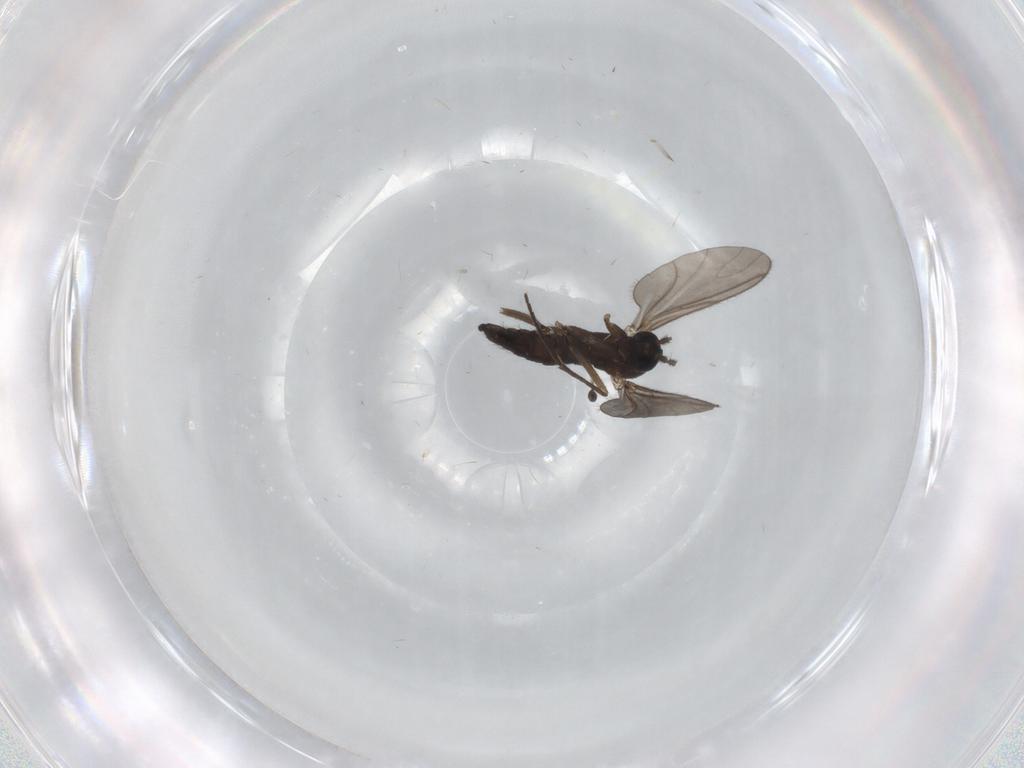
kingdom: Animalia
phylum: Arthropoda
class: Insecta
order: Diptera
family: Sciaridae
